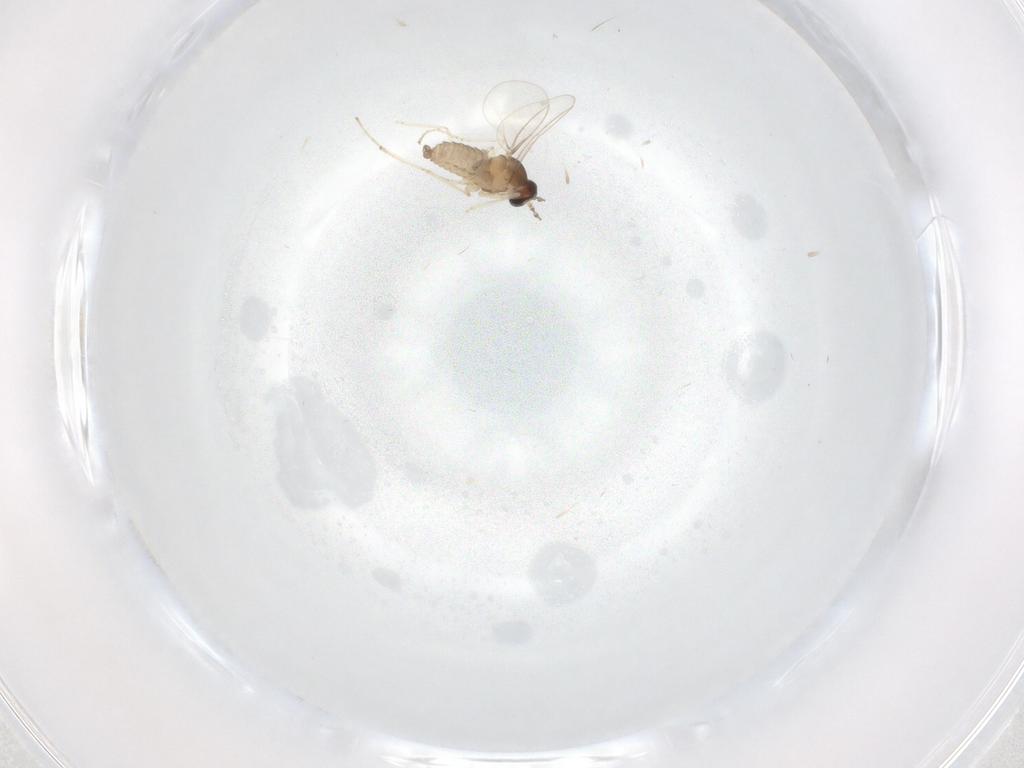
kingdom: Animalia
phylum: Arthropoda
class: Insecta
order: Diptera
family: Cecidomyiidae
